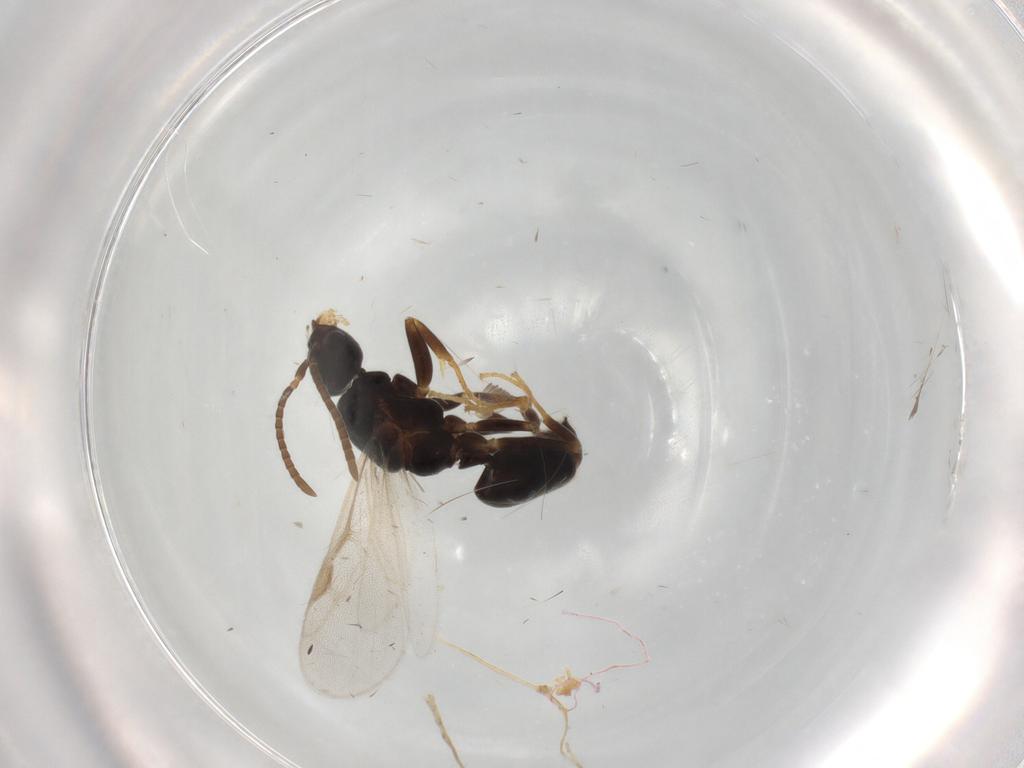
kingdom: Animalia
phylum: Arthropoda
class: Insecta
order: Hymenoptera
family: Formicidae
